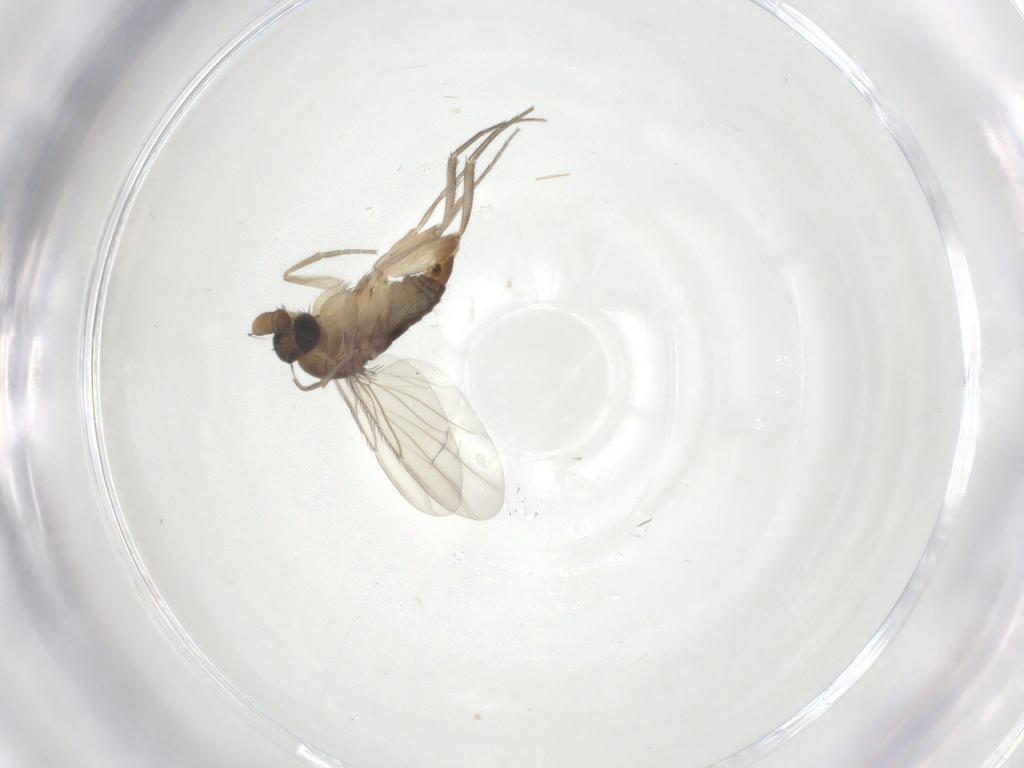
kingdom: Animalia
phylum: Arthropoda
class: Insecta
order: Diptera
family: Phoridae
